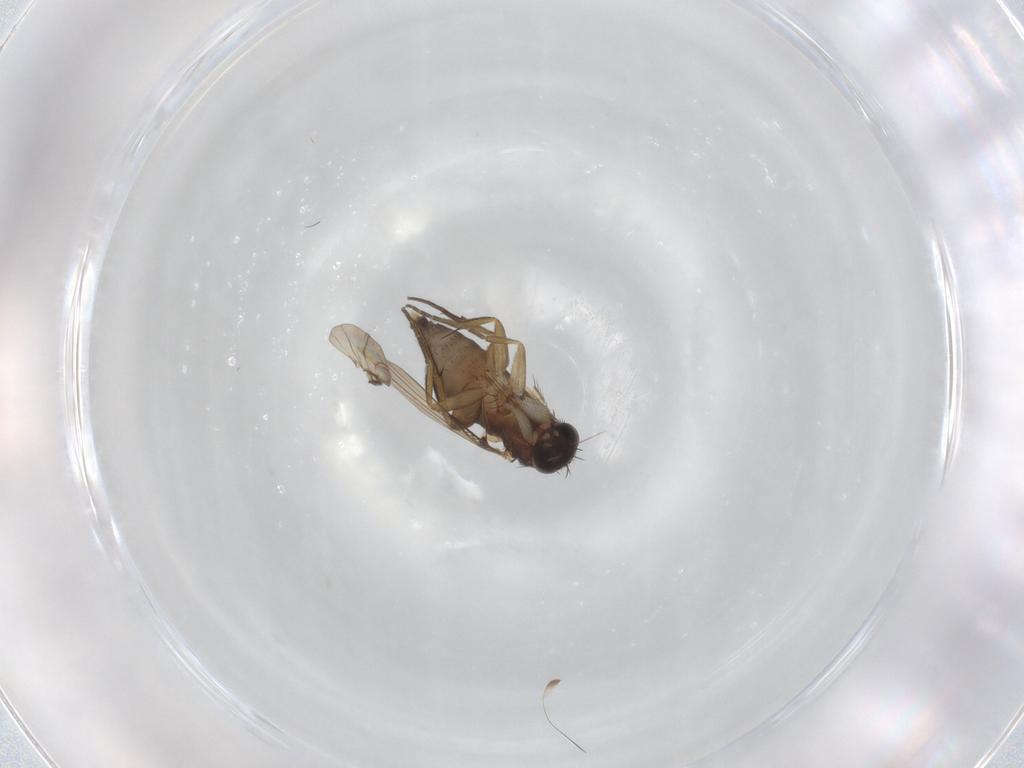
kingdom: Animalia
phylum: Arthropoda
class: Insecta
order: Diptera
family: Phoridae
